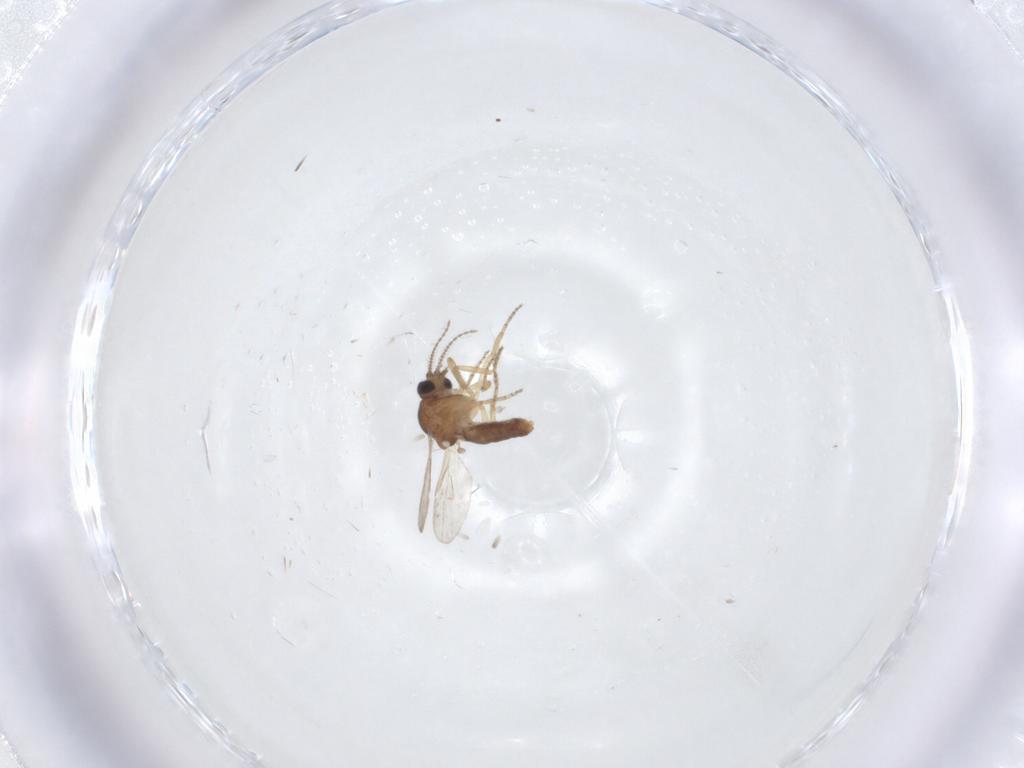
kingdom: Animalia
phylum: Arthropoda
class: Insecta
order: Diptera
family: Ceratopogonidae
